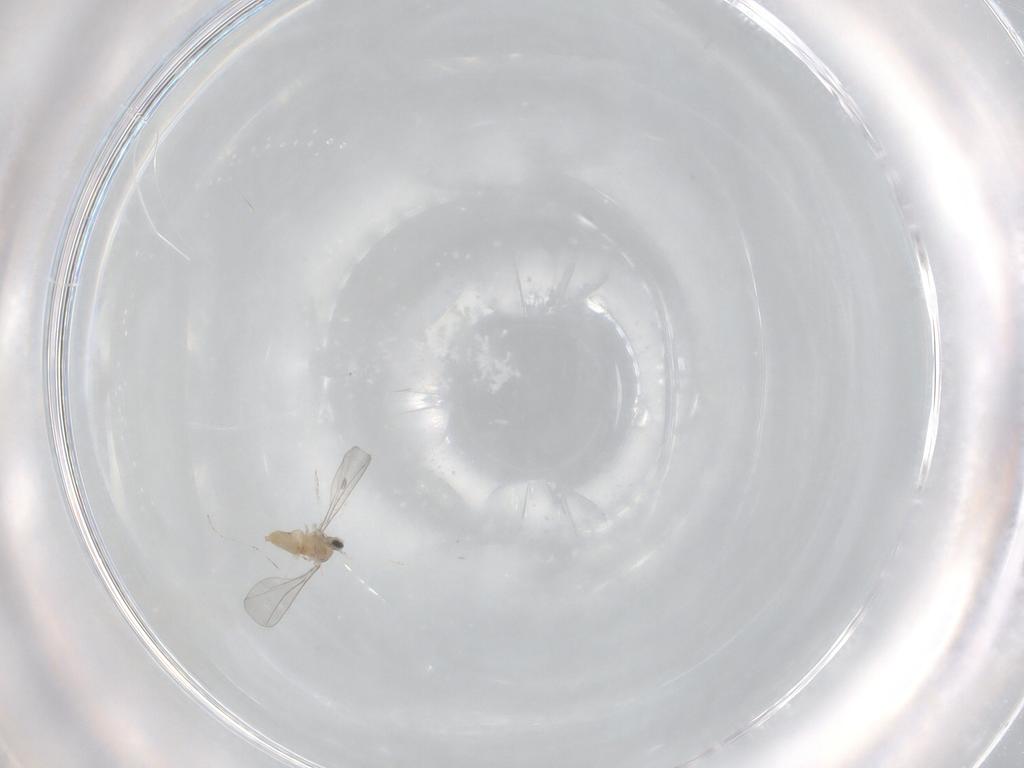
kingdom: Animalia
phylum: Arthropoda
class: Insecta
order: Diptera
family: Cecidomyiidae
